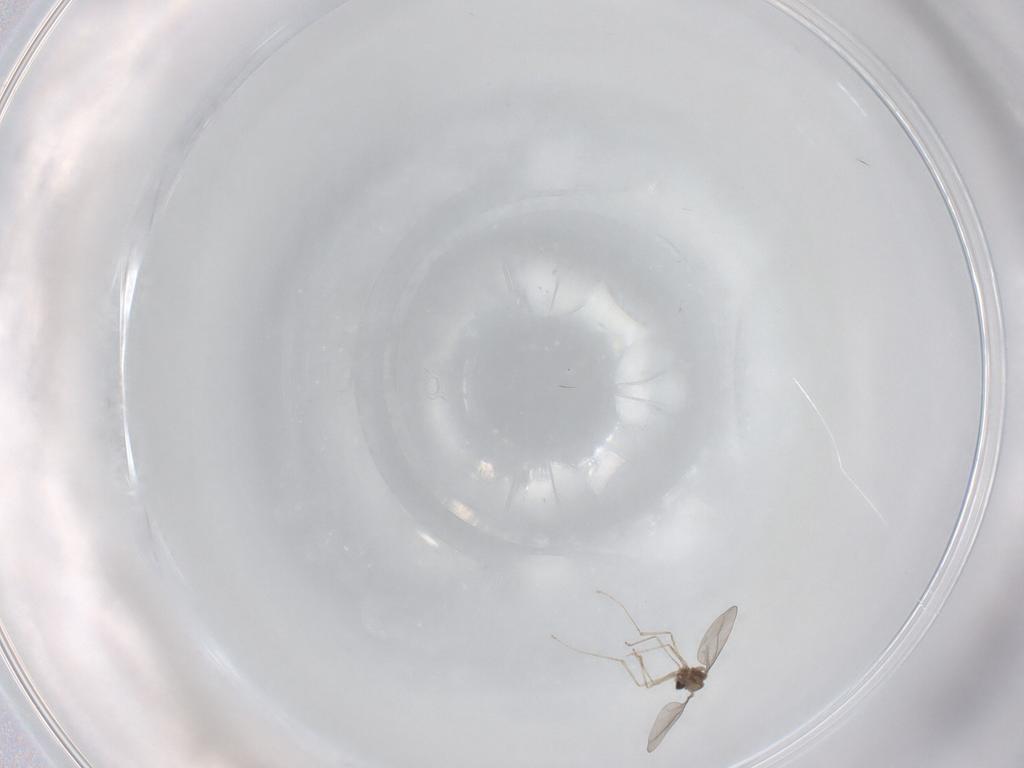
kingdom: Animalia
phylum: Arthropoda
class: Insecta
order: Diptera
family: Cecidomyiidae
